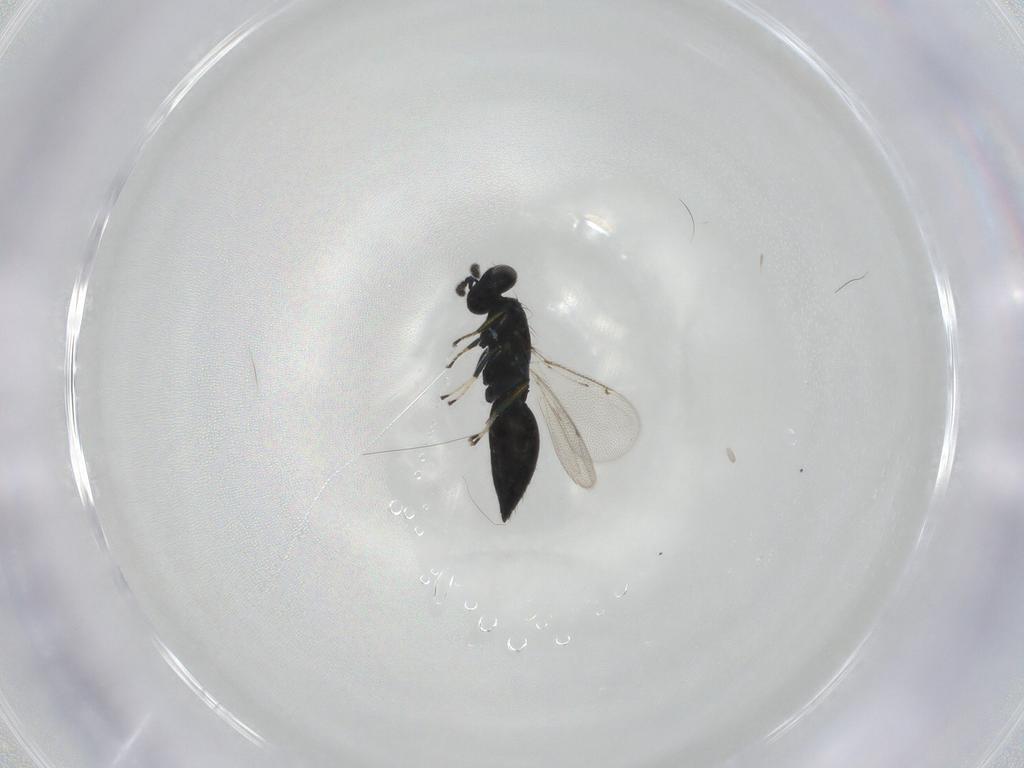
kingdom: Animalia
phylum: Arthropoda
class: Insecta
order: Hymenoptera
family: Eulophidae
